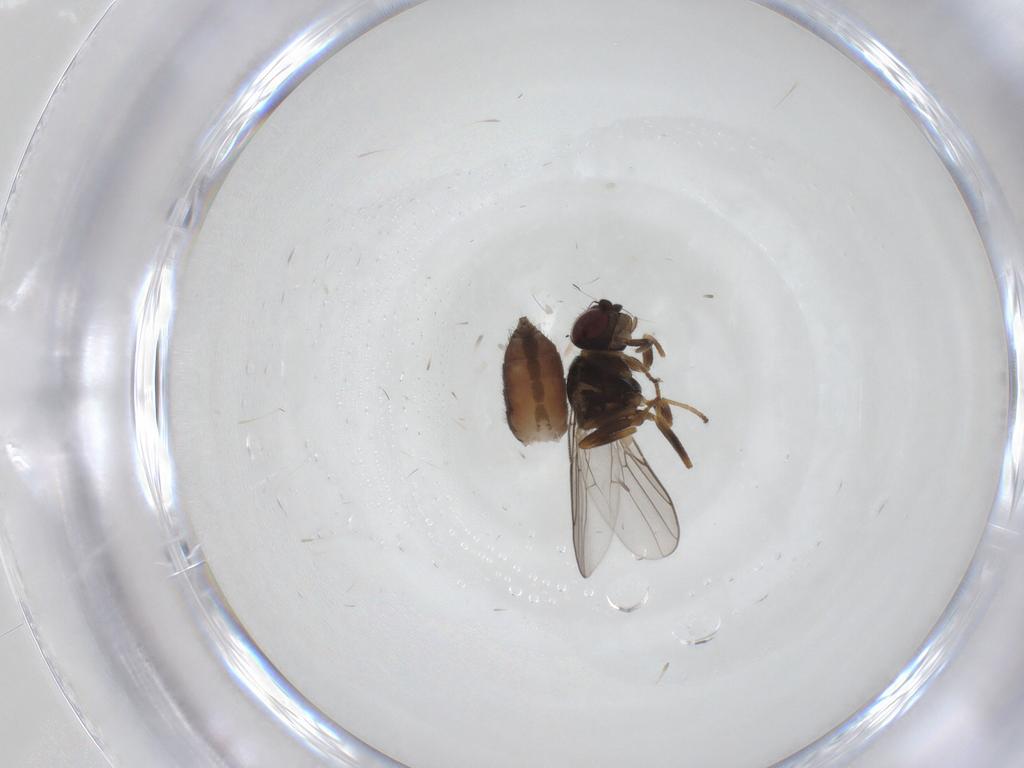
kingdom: Animalia
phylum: Arthropoda
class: Insecta
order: Diptera
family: Chloropidae
